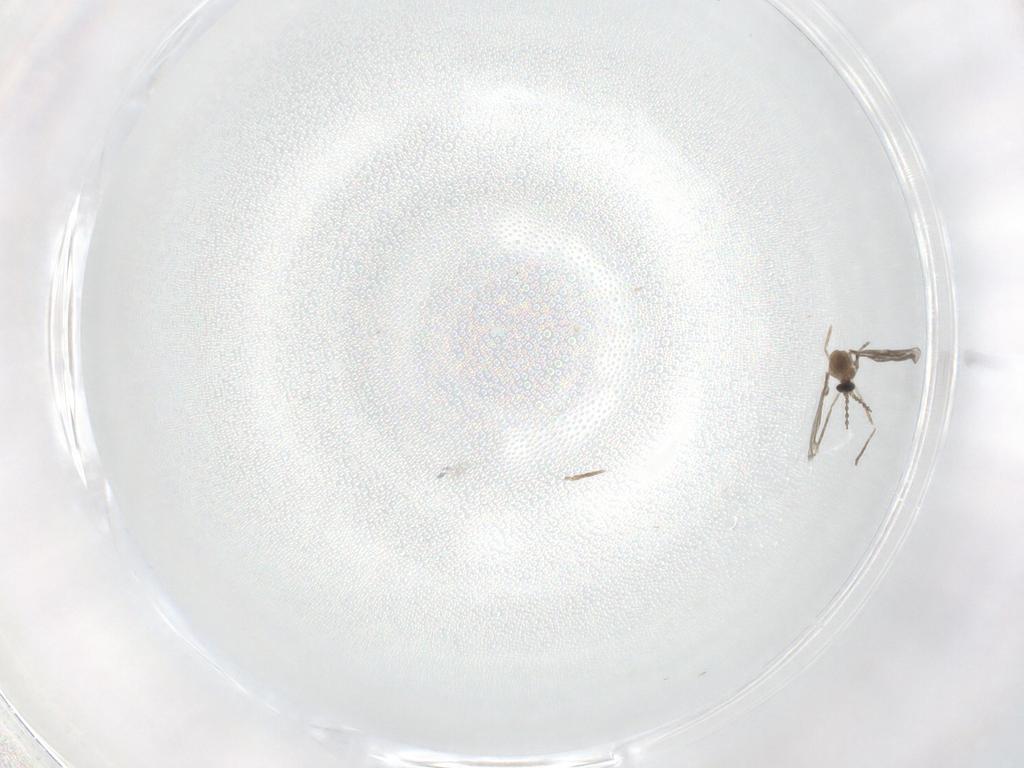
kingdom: Animalia
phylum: Arthropoda
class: Insecta
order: Diptera
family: Sciaridae
